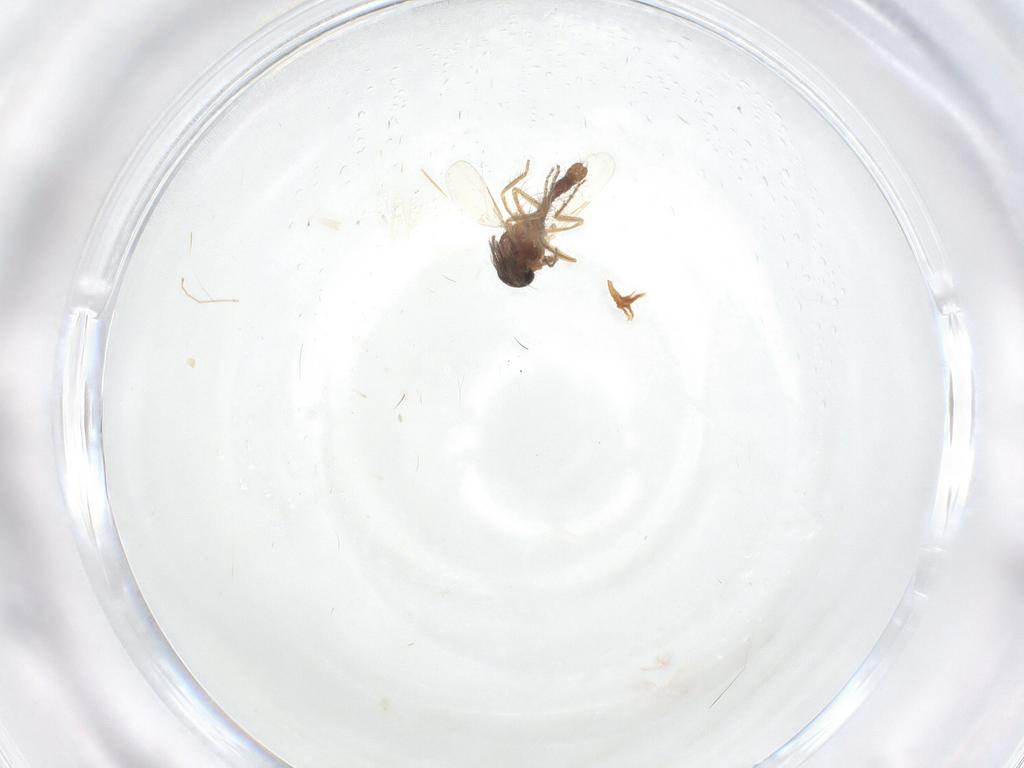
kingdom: Animalia
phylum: Arthropoda
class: Insecta
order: Diptera
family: Ceratopogonidae
